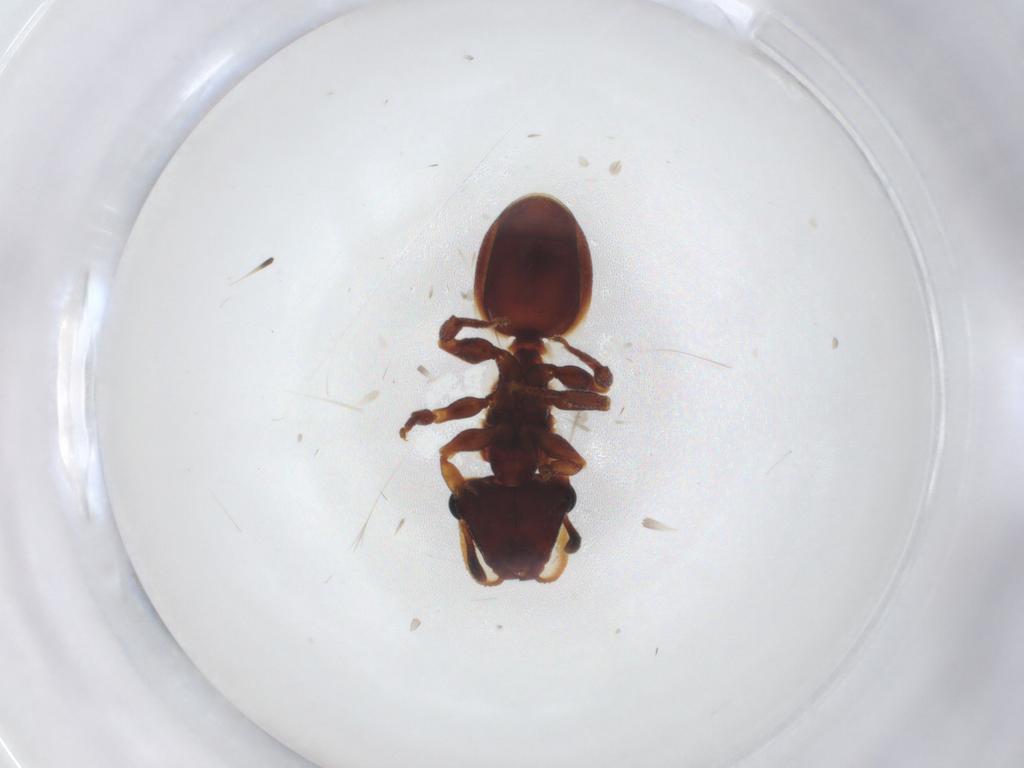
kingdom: Animalia
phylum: Arthropoda
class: Insecta
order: Hymenoptera
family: Formicidae
